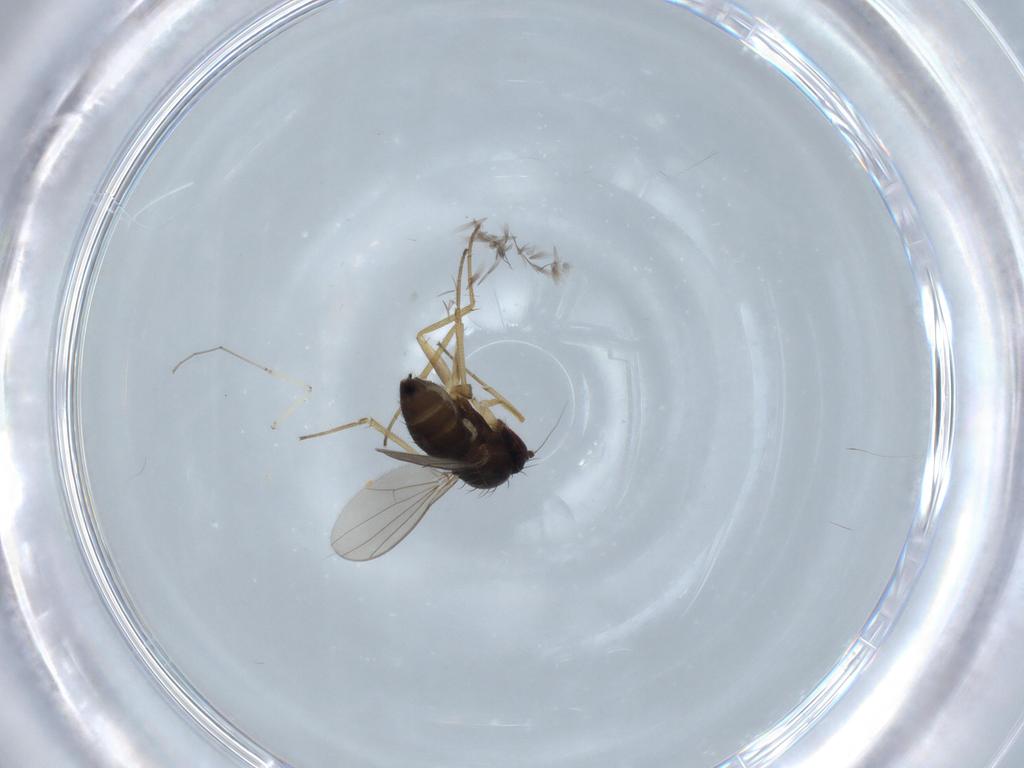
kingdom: Animalia
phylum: Arthropoda
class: Insecta
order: Diptera
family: Dolichopodidae
